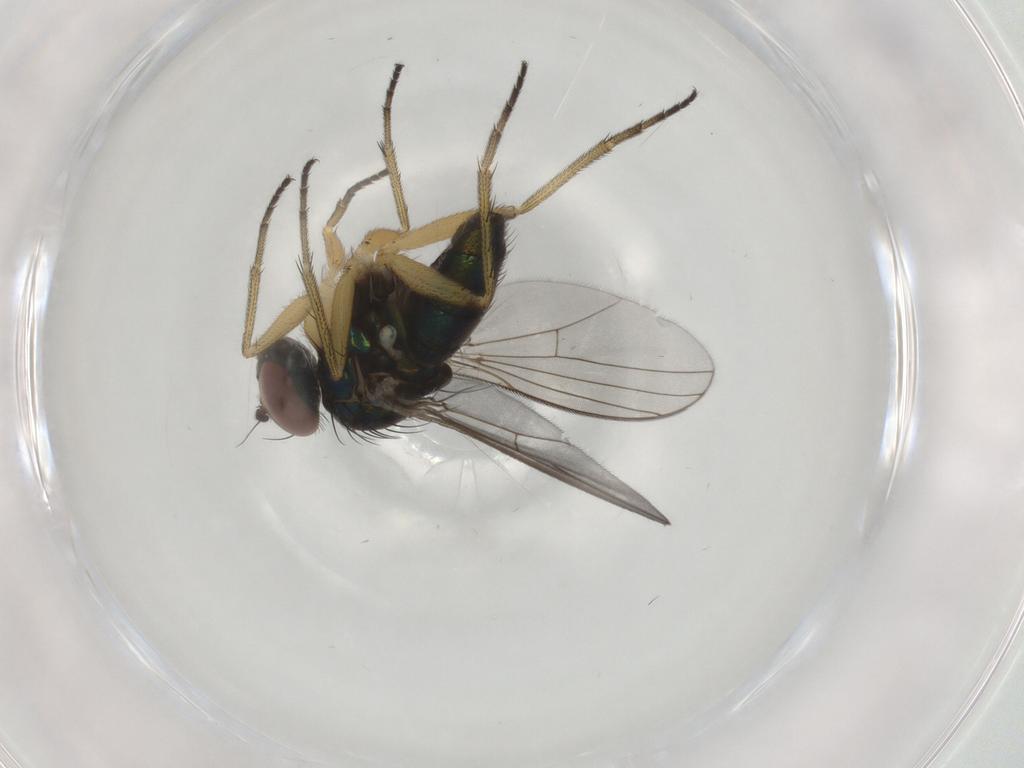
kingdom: Animalia
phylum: Arthropoda
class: Insecta
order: Diptera
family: Dolichopodidae
